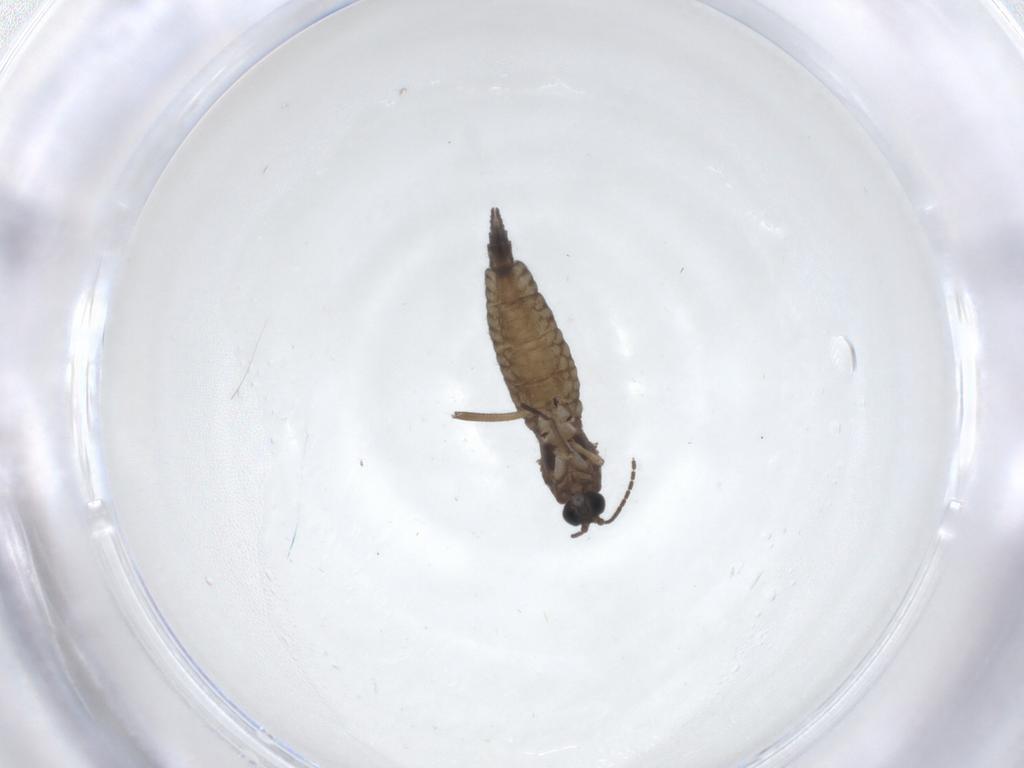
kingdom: Animalia
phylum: Arthropoda
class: Insecta
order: Diptera
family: Sciaridae
